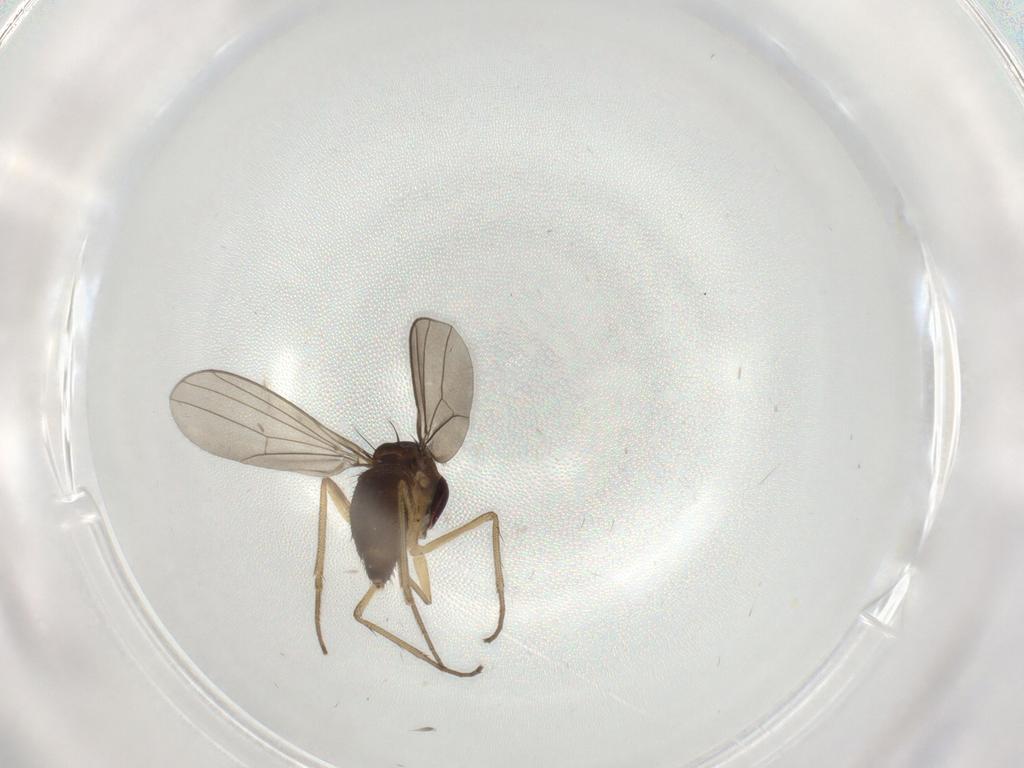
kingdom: Animalia
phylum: Arthropoda
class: Insecta
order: Diptera
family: Dolichopodidae
